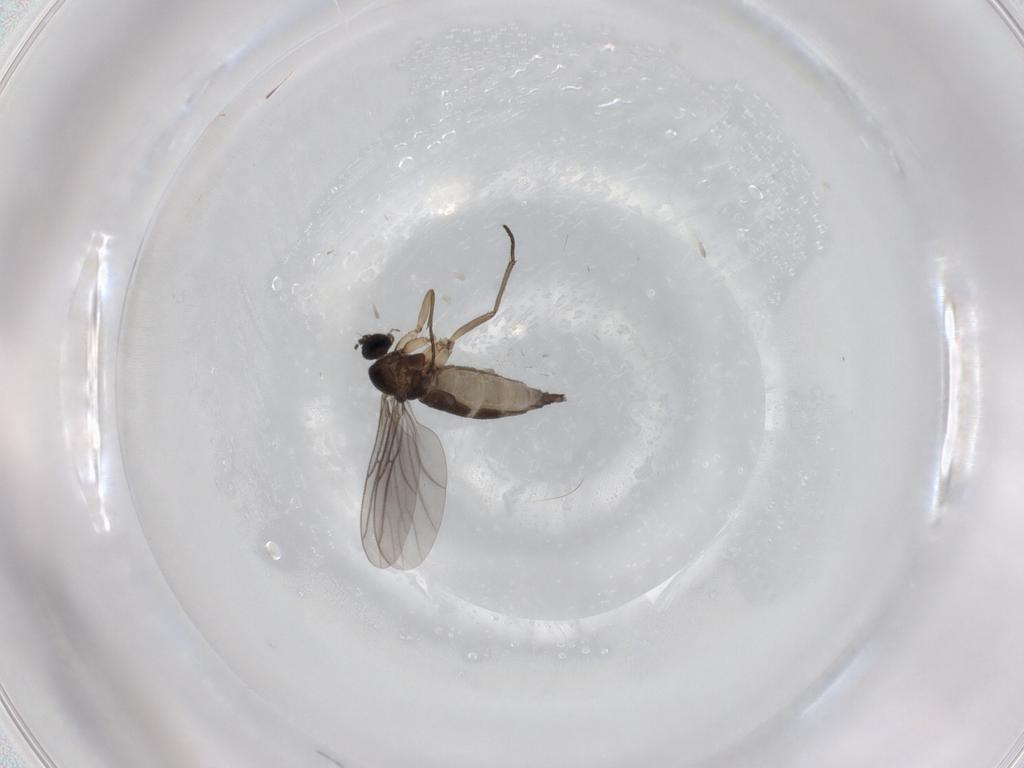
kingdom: Animalia
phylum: Arthropoda
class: Insecta
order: Diptera
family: Sciaridae
